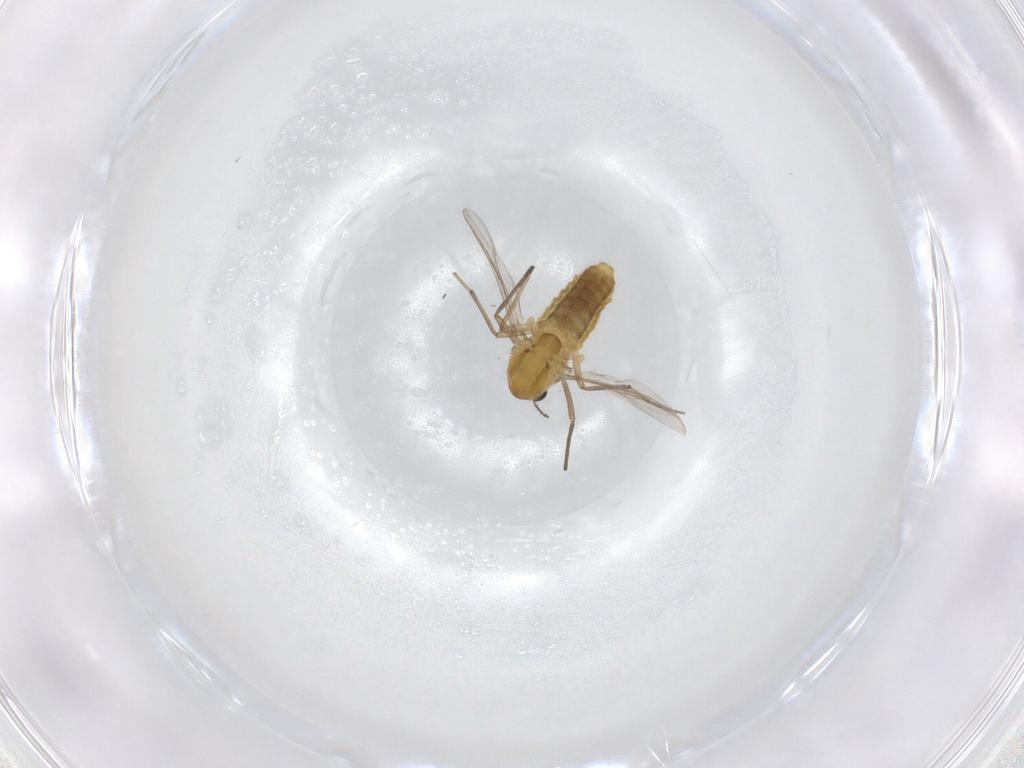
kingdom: Animalia
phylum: Arthropoda
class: Insecta
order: Diptera
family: Chironomidae
